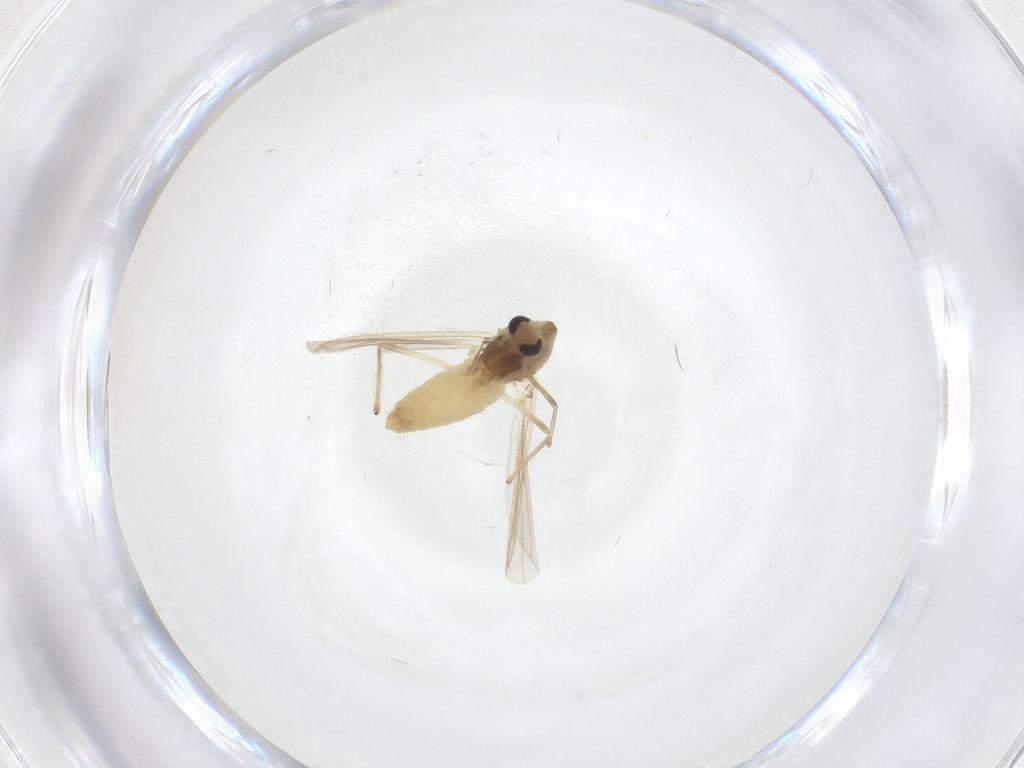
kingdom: Animalia
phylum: Arthropoda
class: Insecta
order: Diptera
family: Chironomidae
